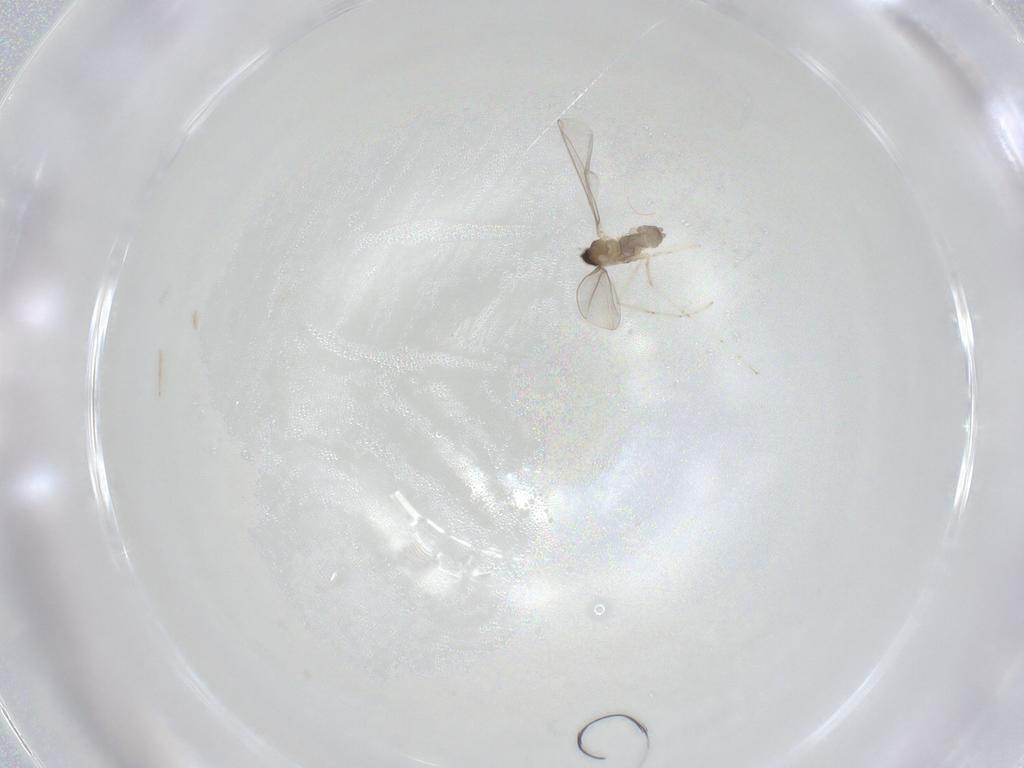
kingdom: Animalia
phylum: Arthropoda
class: Insecta
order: Diptera
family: Cecidomyiidae
